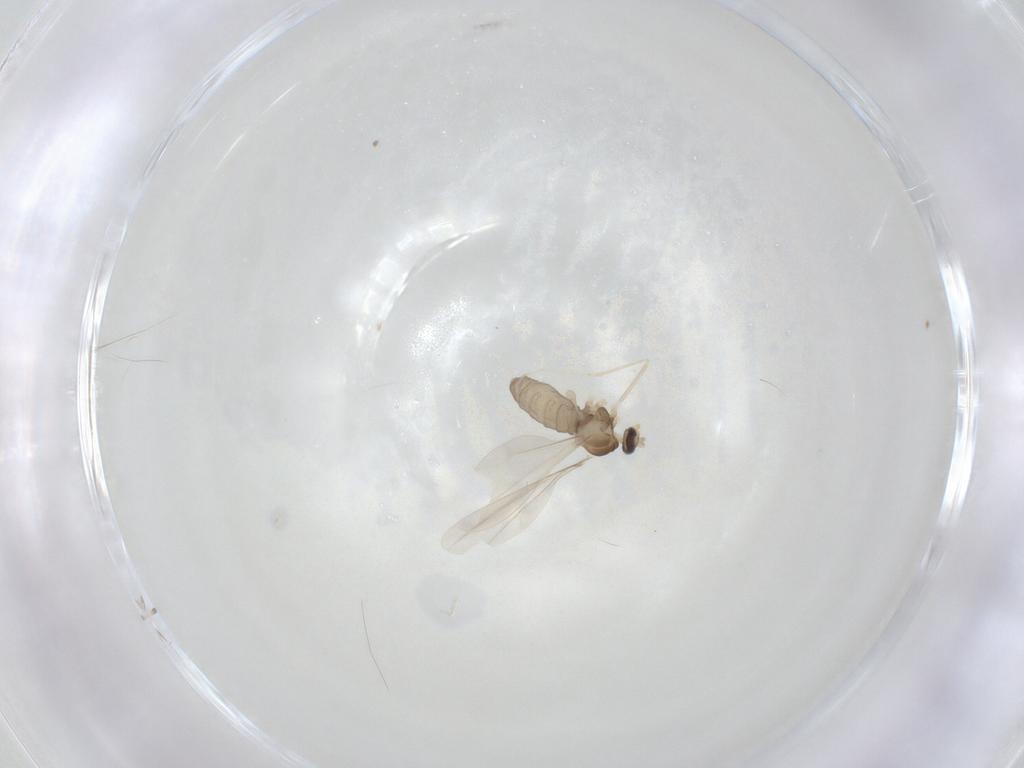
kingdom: Animalia
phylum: Arthropoda
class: Insecta
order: Diptera
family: Cecidomyiidae
